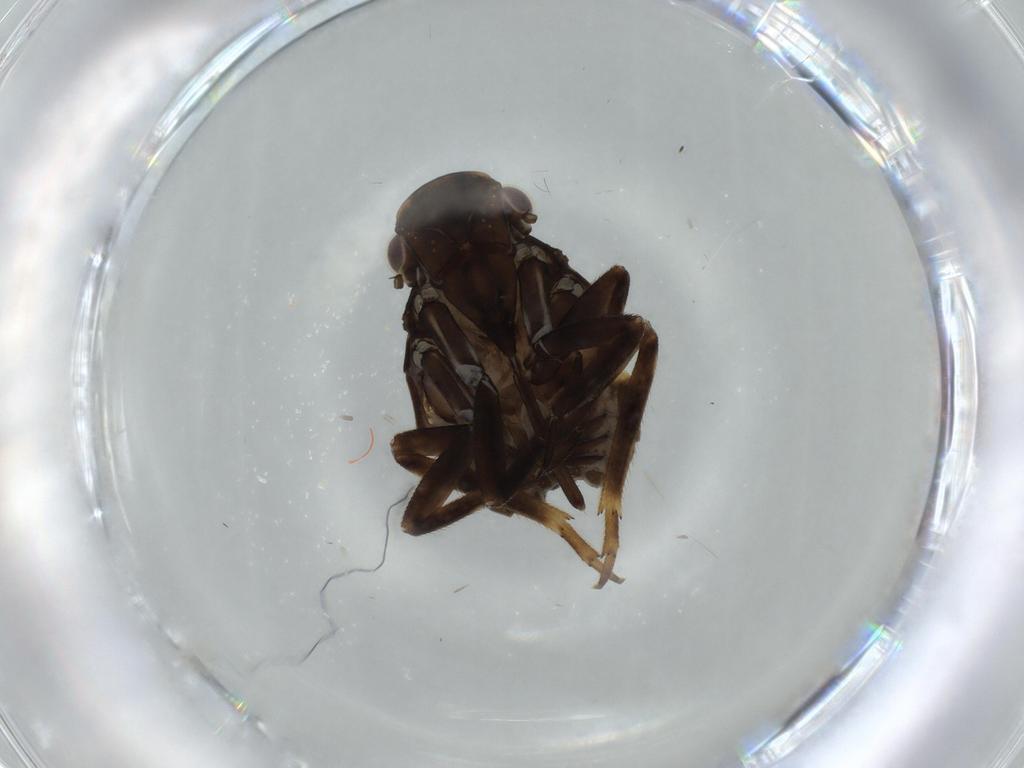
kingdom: Animalia
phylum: Arthropoda
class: Insecta
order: Hemiptera
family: Fulgoridae
